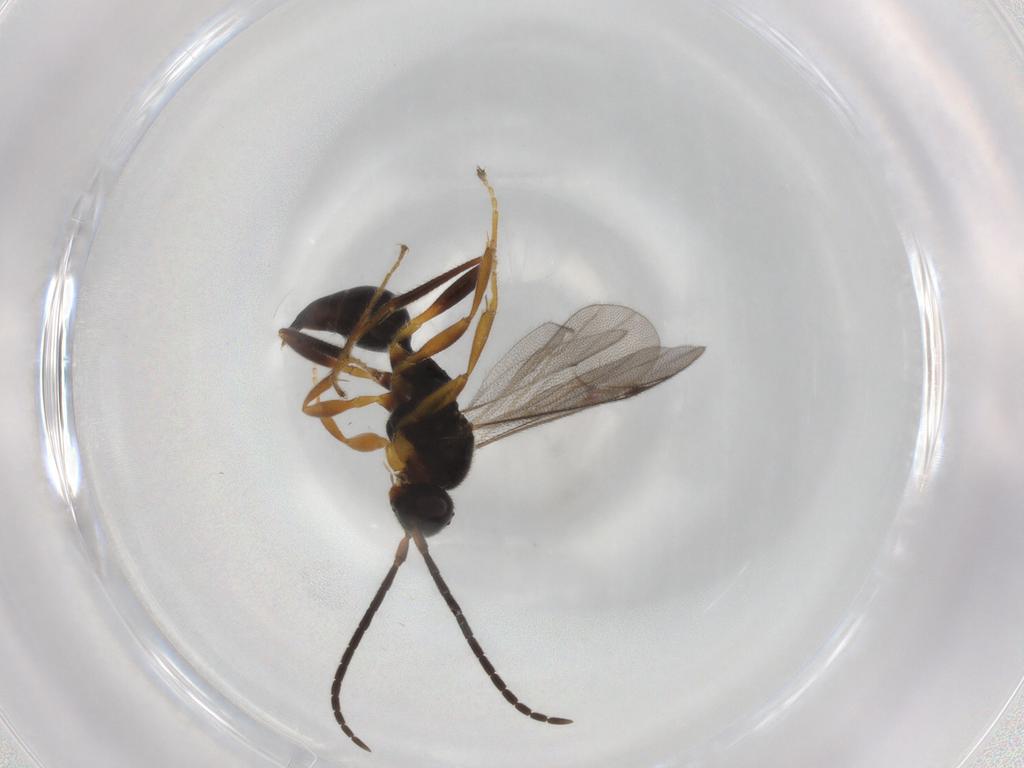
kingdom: Animalia
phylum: Arthropoda
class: Insecta
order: Hymenoptera
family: Proctotrupidae
